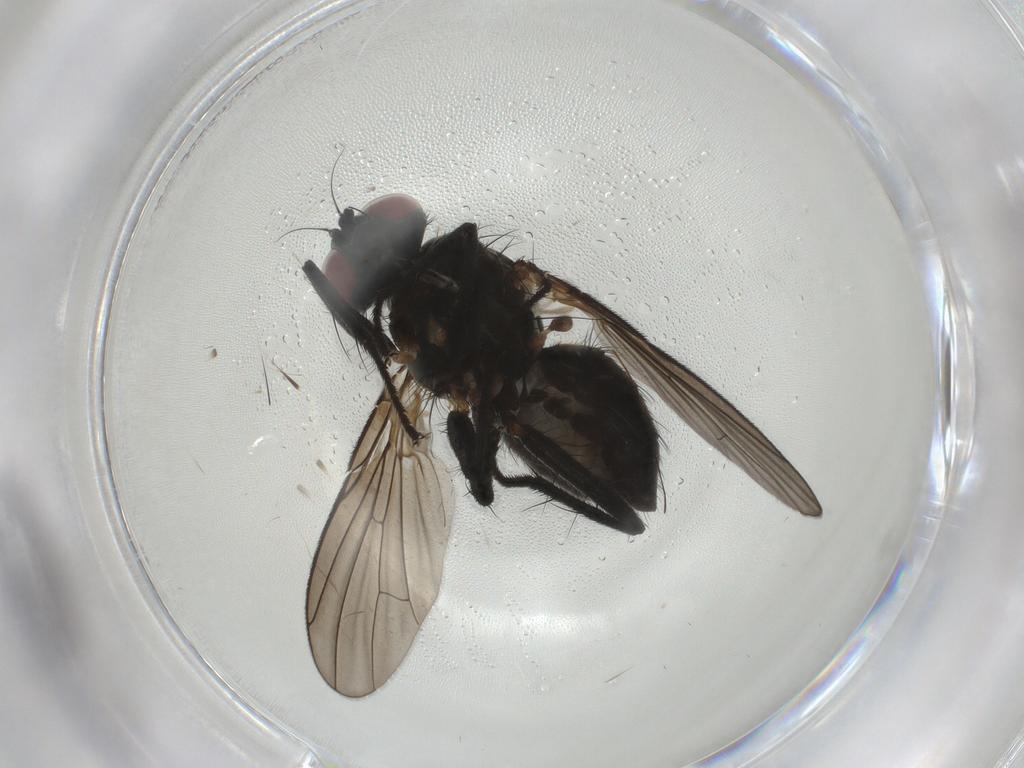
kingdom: Animalia
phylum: Arthropoda
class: Insecta
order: Diptera
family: Muscidae
